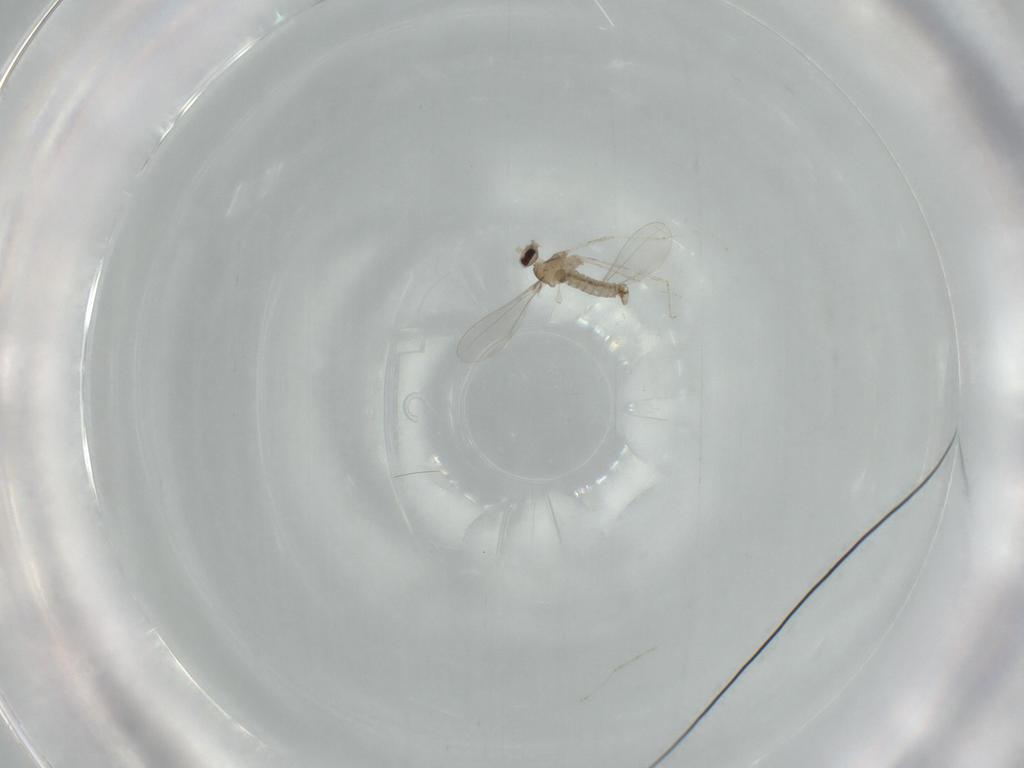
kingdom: Animalia
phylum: Arthropoda
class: Insecta
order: Diptera
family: Cecidomyiidae
